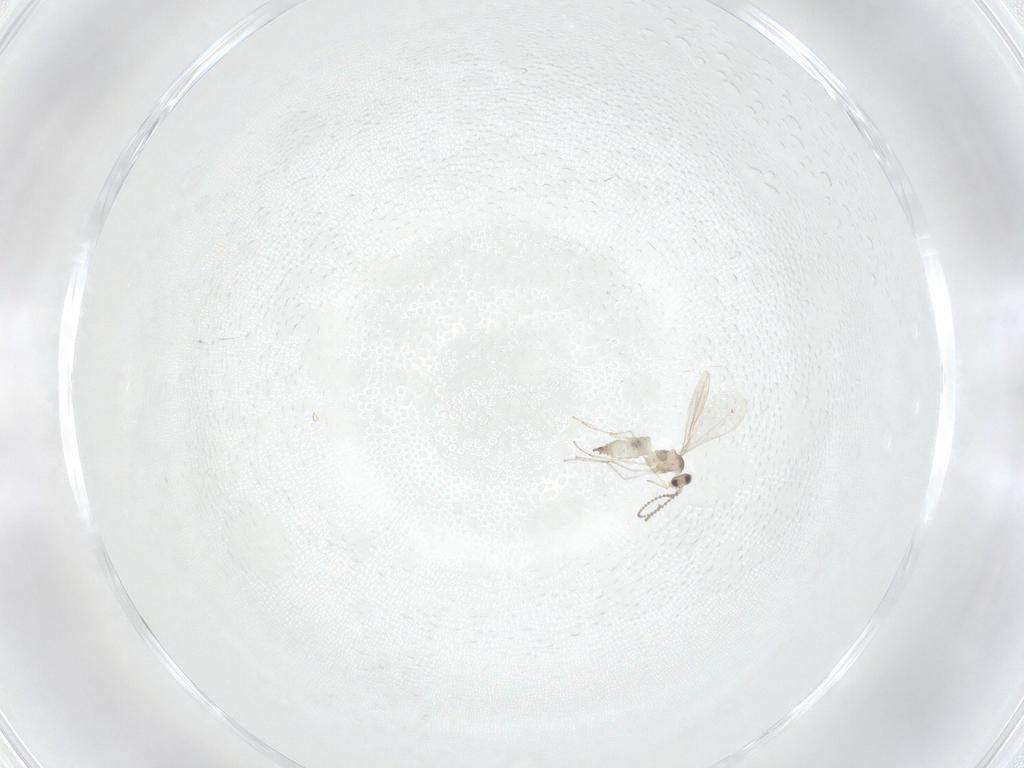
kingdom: Animalia
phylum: Arthropoda
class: Insecta
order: Diptera
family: Cecidomyiidae
